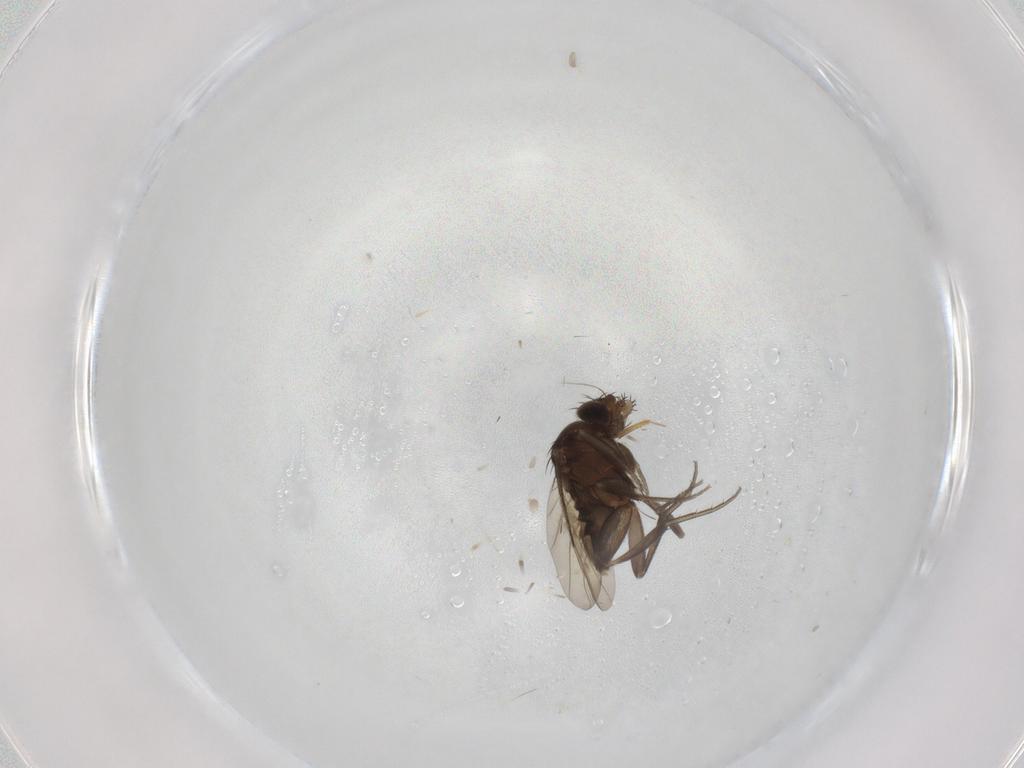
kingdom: Animalia
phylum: Arthropoda
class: Insecta
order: Diptera
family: Phoridae
